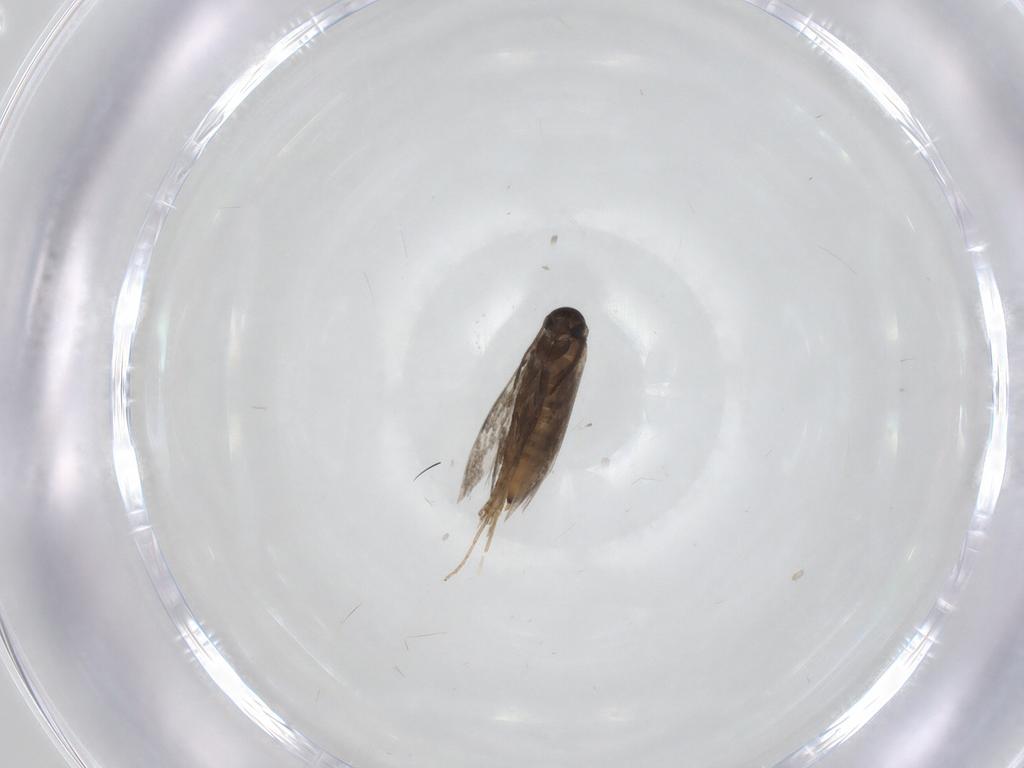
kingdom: Animalia
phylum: Arthropoda
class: Insecta
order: Lepidoptera
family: Heliozelidae
